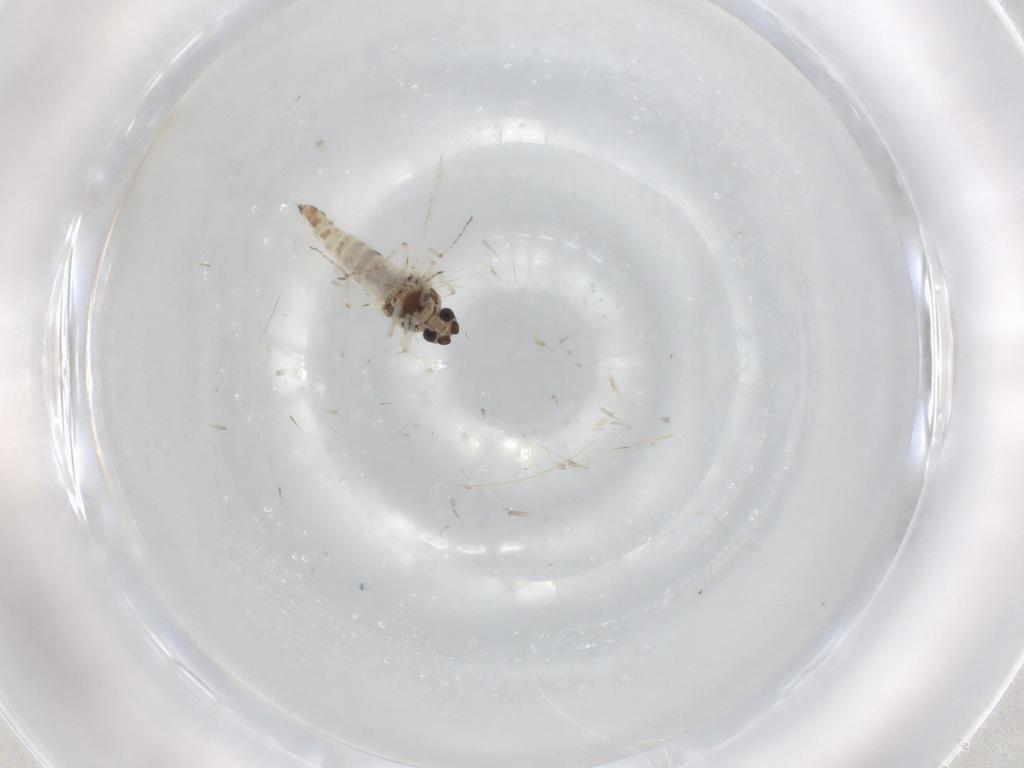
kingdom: Animalia
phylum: Arthropoda
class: Insecta
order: Diptera
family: Ceratopogonidae
